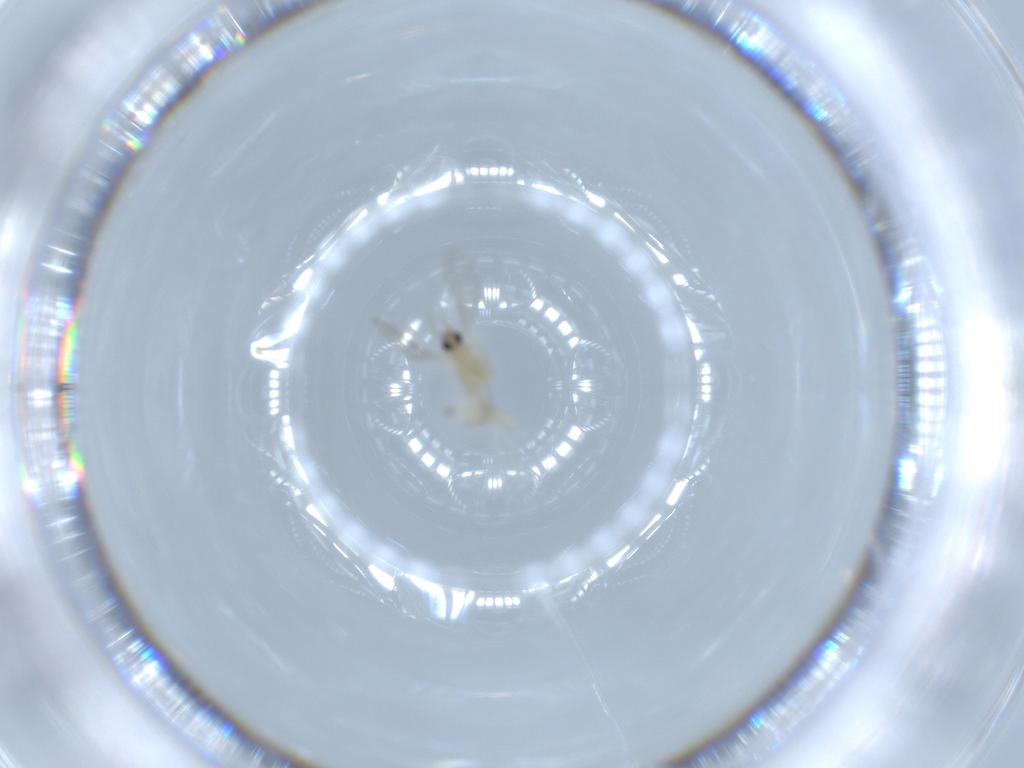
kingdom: Animalia
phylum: Arthropoda
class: Insecta
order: Diptera
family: Cecidomyiidae
